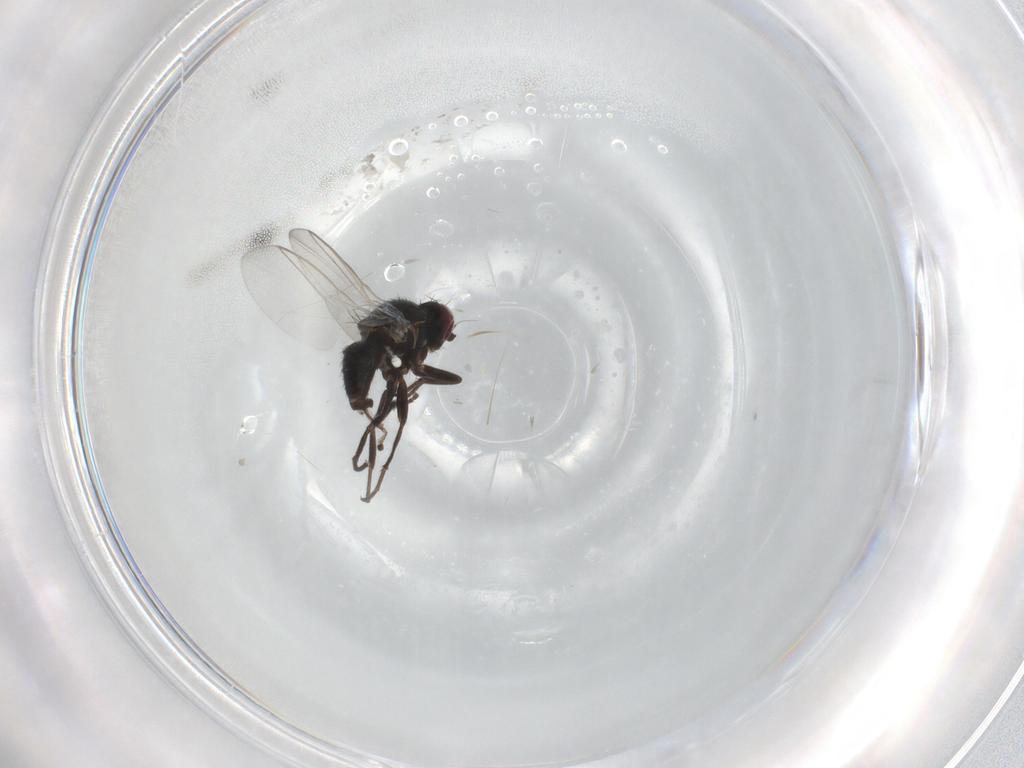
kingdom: Animalia
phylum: Arthropoda
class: Insecta
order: Diptera
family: Agromyzidae
